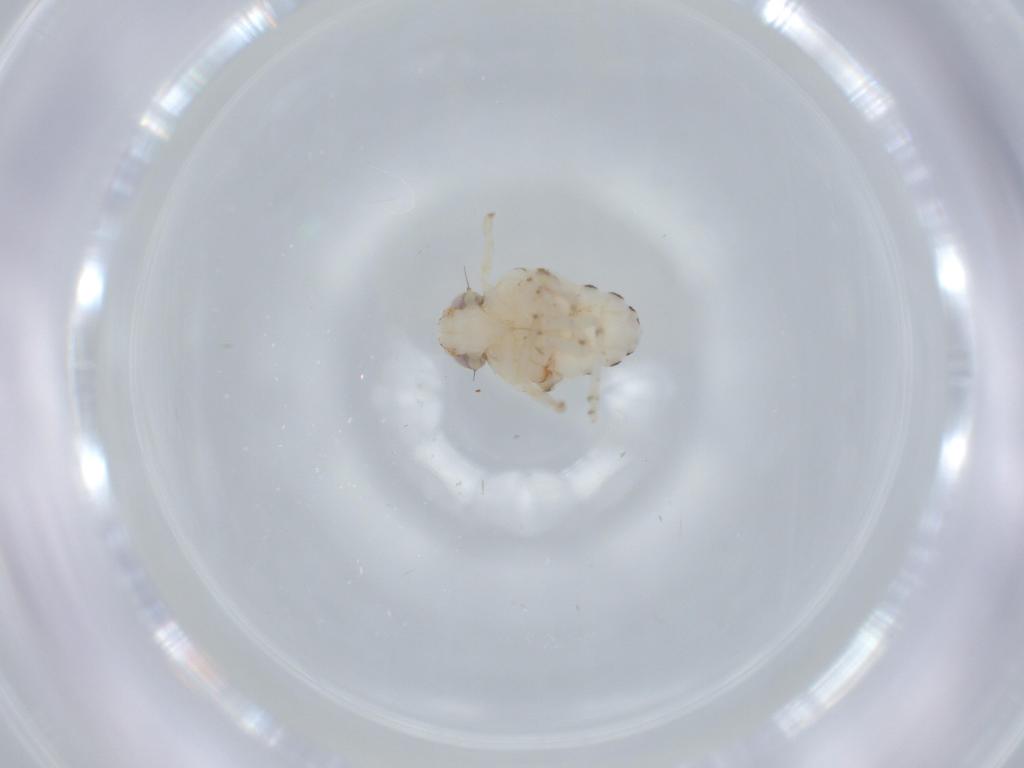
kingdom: Animalia
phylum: Arthropoda
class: Insecta
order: Hemiptera
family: Nogodinidae
